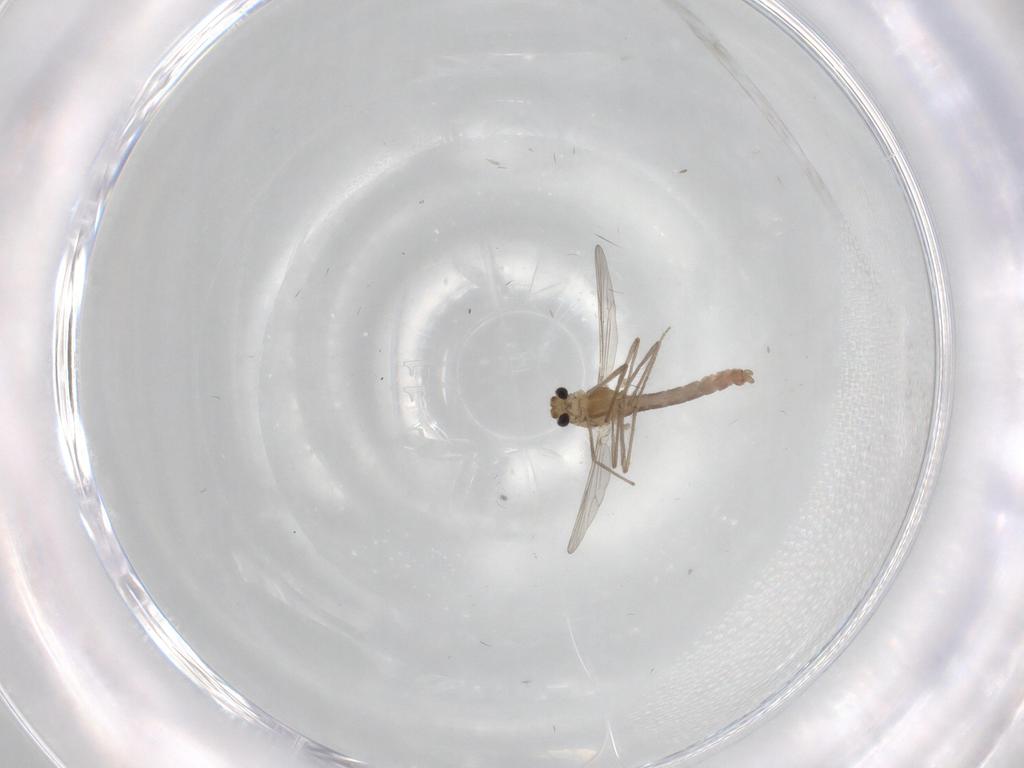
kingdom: Animalia
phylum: Arthropoda
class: Insecta
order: Diptera
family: Chironomidae
